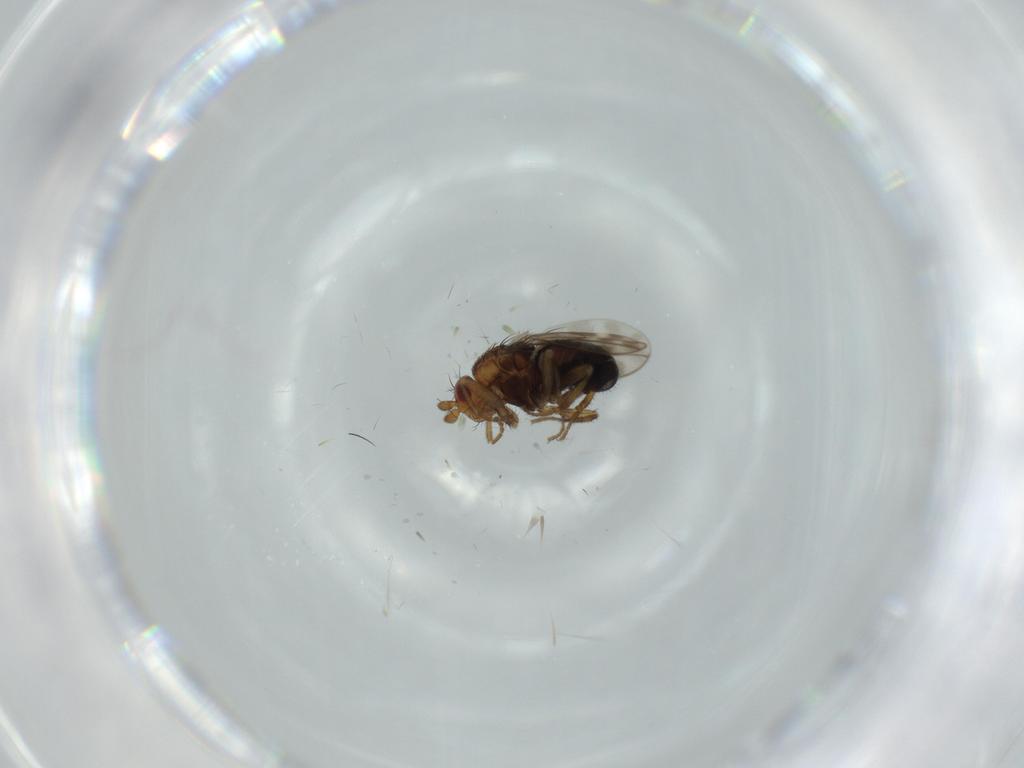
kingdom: Animalia
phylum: Arthropoda
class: Insecta
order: Diptera
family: Sphaeroceridae
